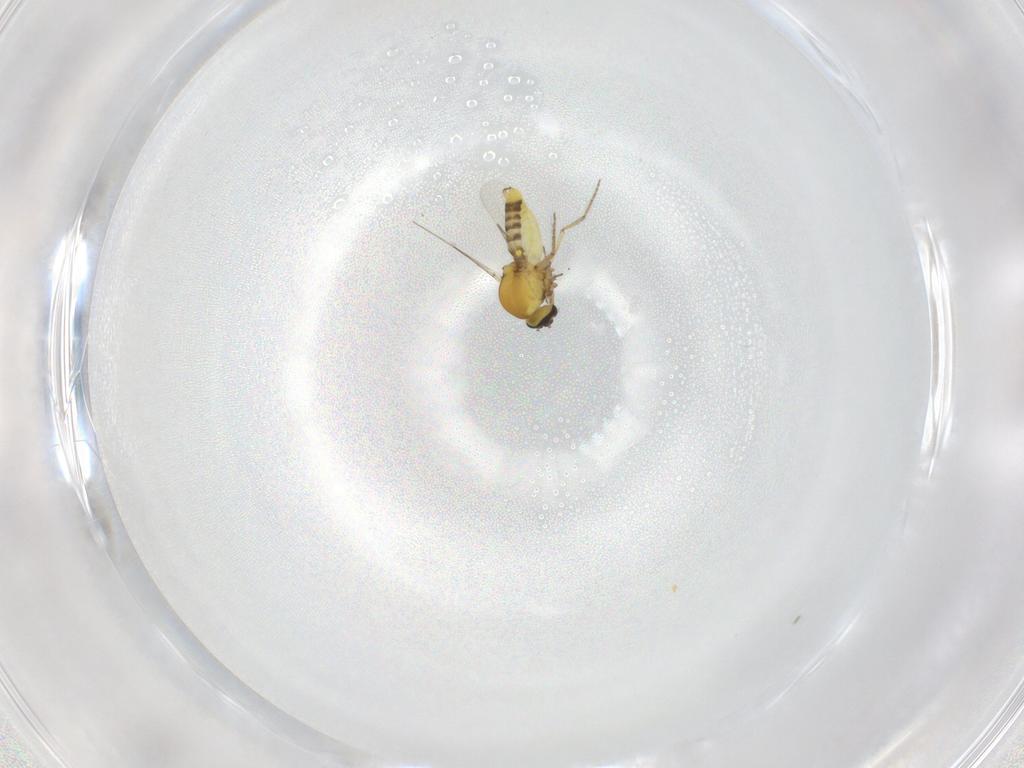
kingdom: Animalia
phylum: Arthropoda
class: Insecta
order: Diptera
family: Ceratopogonidae
